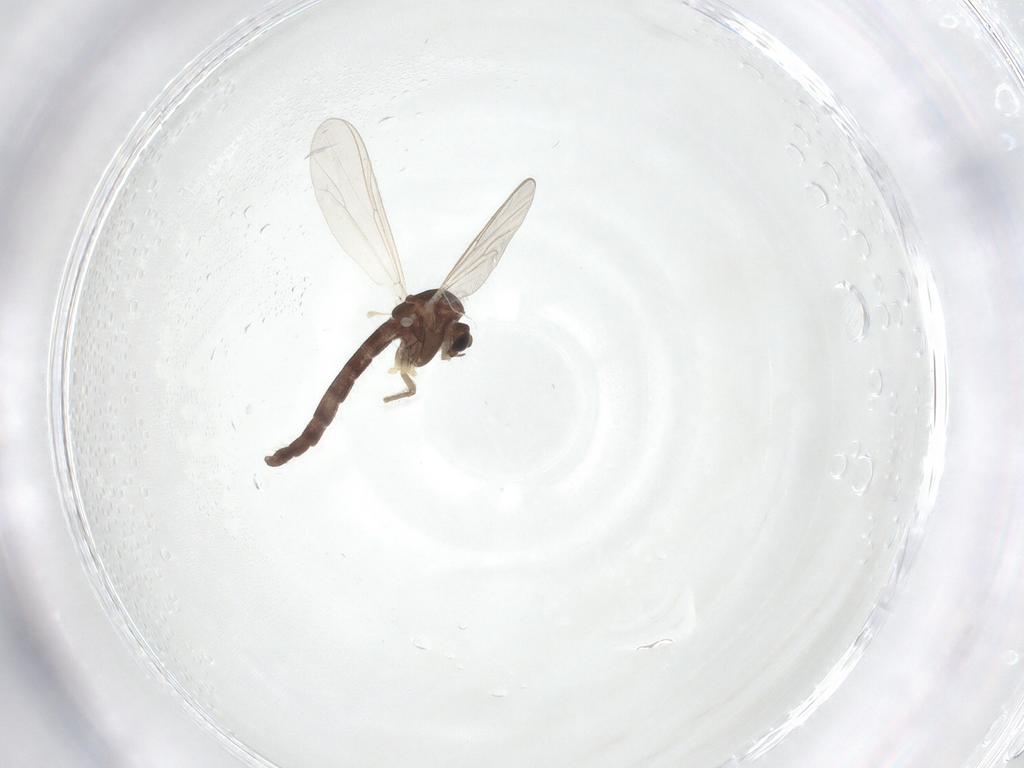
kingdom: Animalia
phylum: Arthropoda
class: Insecta
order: Diptera
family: Chironomidae
